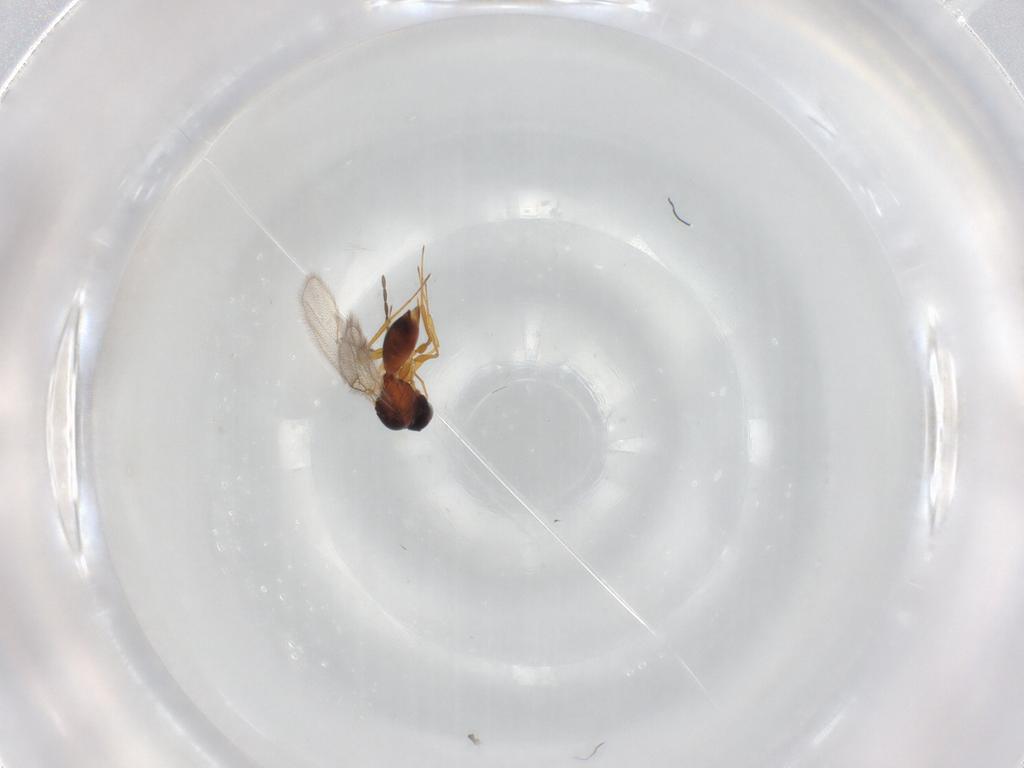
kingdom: Animalia
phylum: Arthropoda
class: Insecta
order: Hymenoptera
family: Figitidae
